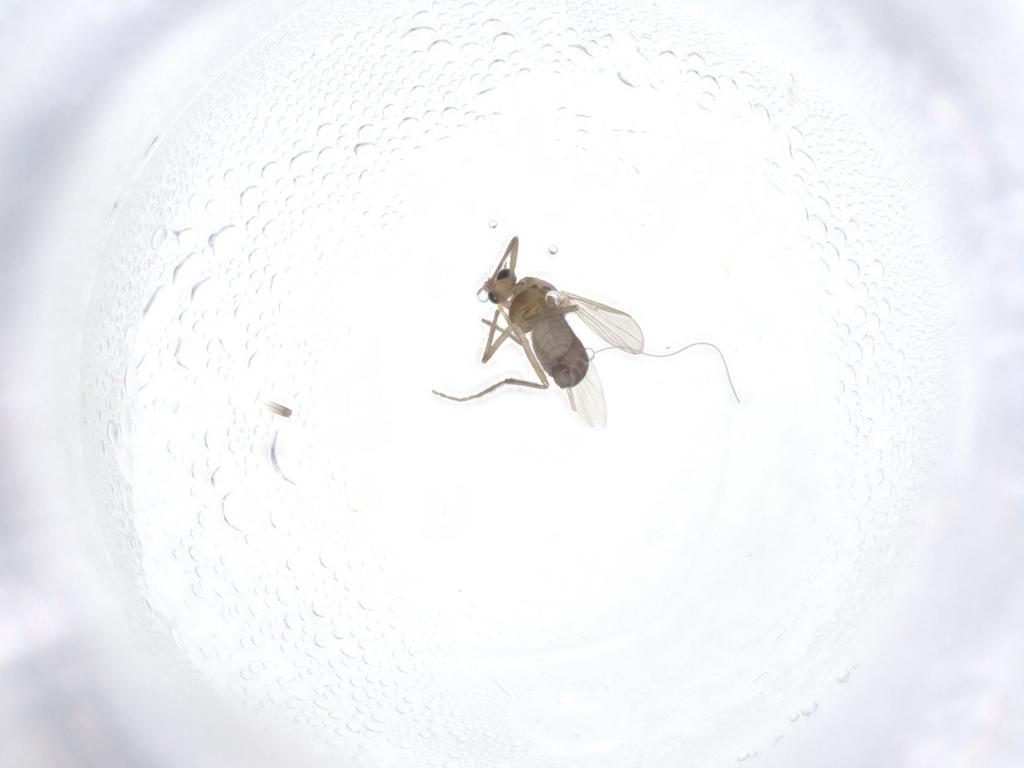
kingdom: Animalia
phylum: Arthropoda
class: Insecta
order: Diptera
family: Chironomidae
